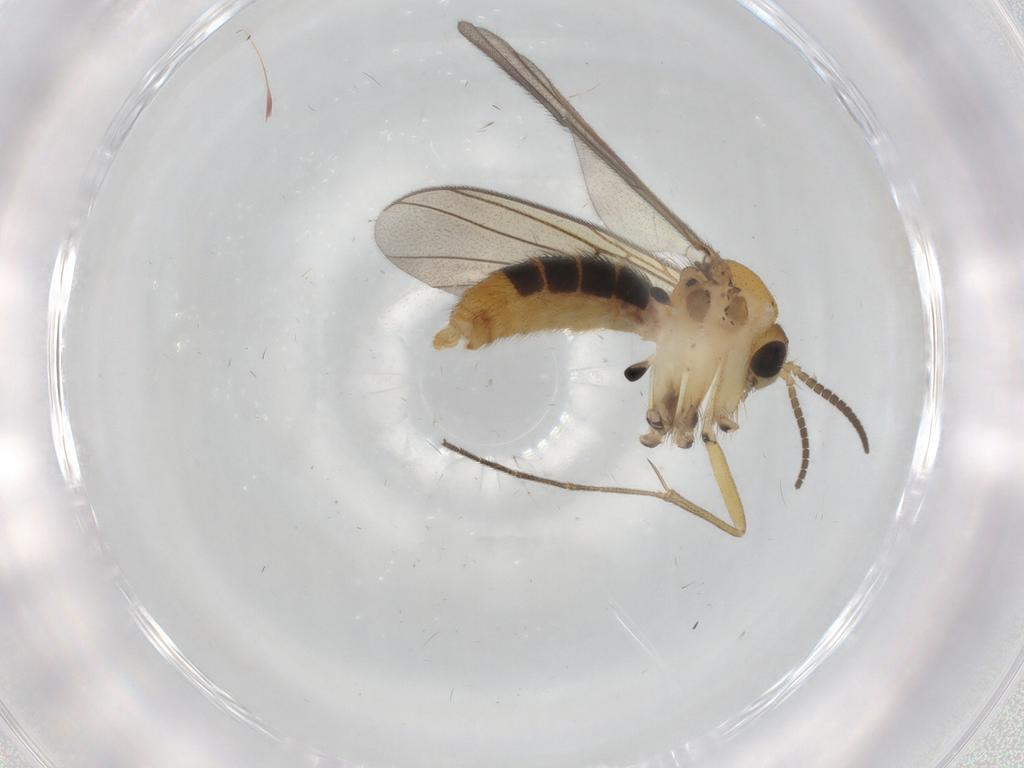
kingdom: Animalia
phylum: Arthropoda
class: Insecta
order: Diptera
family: Mycetophilidae
